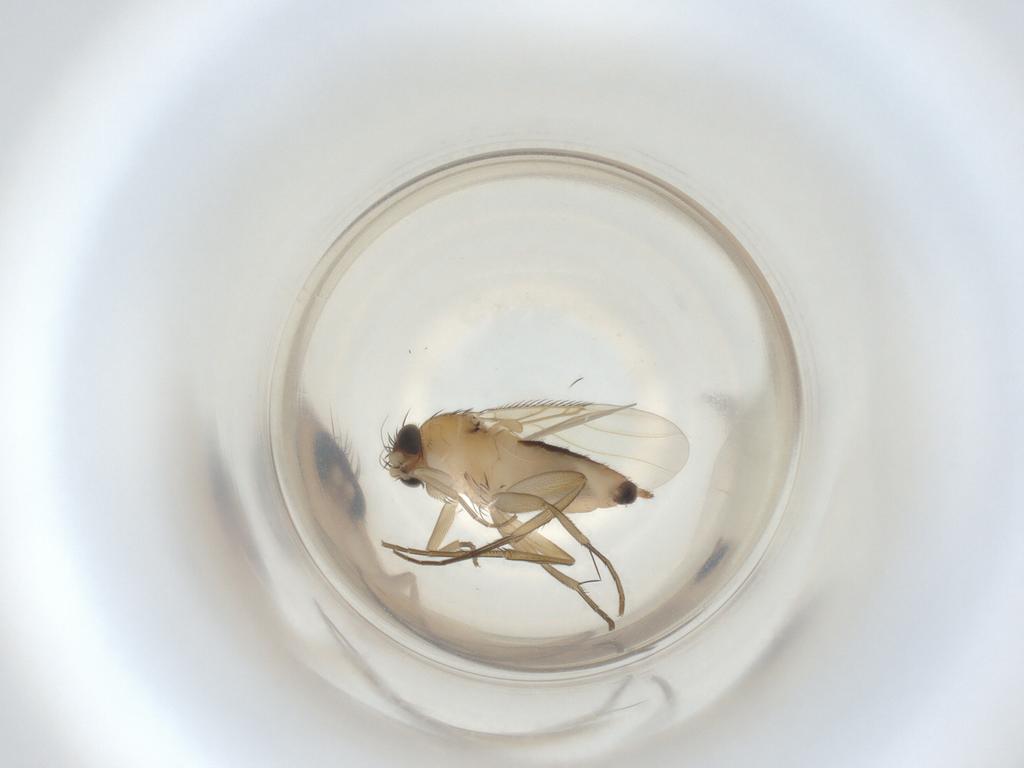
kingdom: Animalia
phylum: Arthropoda
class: Insecta
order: Diptera
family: Phoridae
